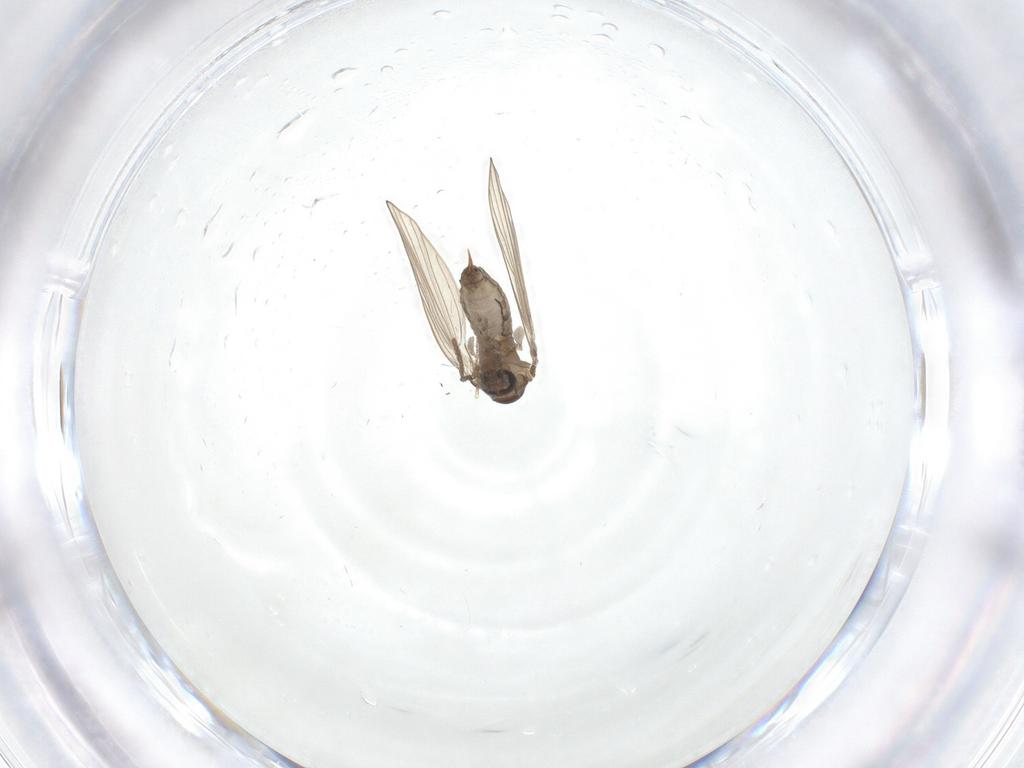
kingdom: Animalia
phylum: Arthropoda
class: Insecta
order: Diptera
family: Psychodidae
